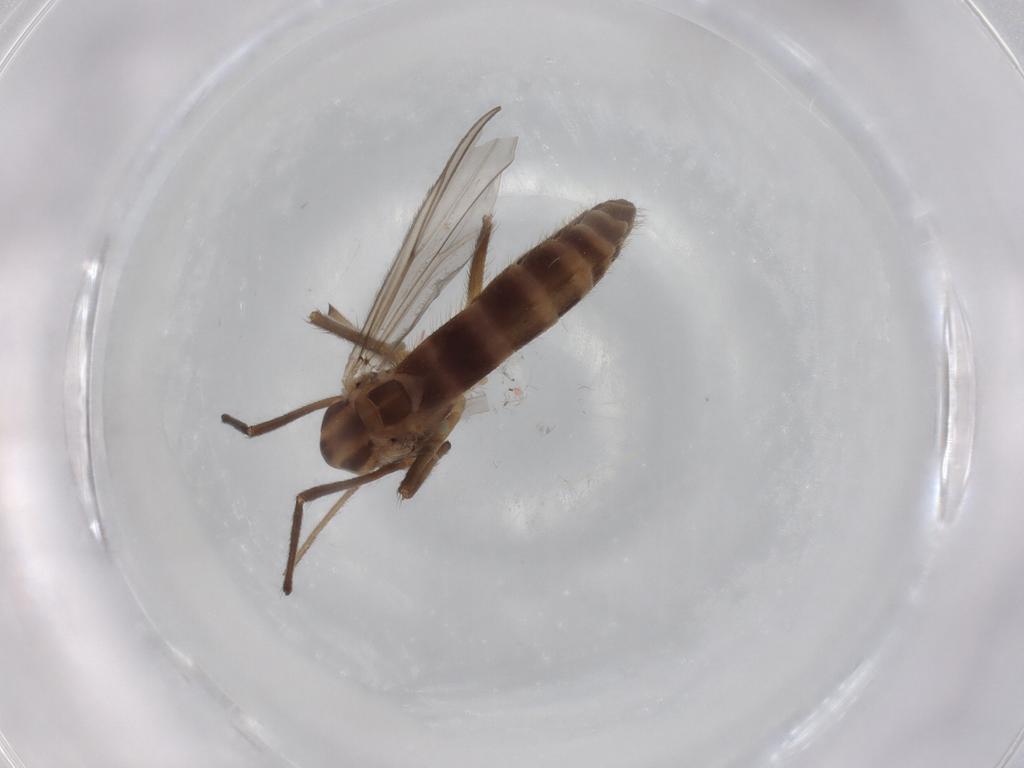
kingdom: Animalia
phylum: Arthropoda
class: Insecta
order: Diptera
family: Chironomidae
